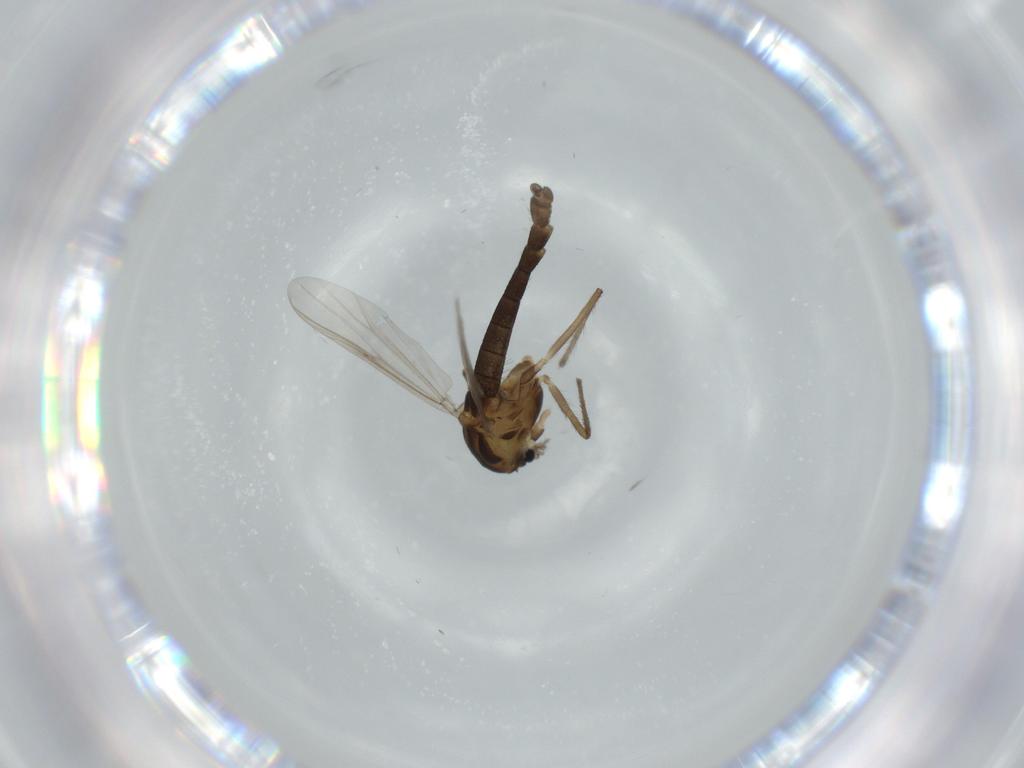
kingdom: Animalia
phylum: Arthropoda
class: Insecta
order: Diptera
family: Chironomidae
